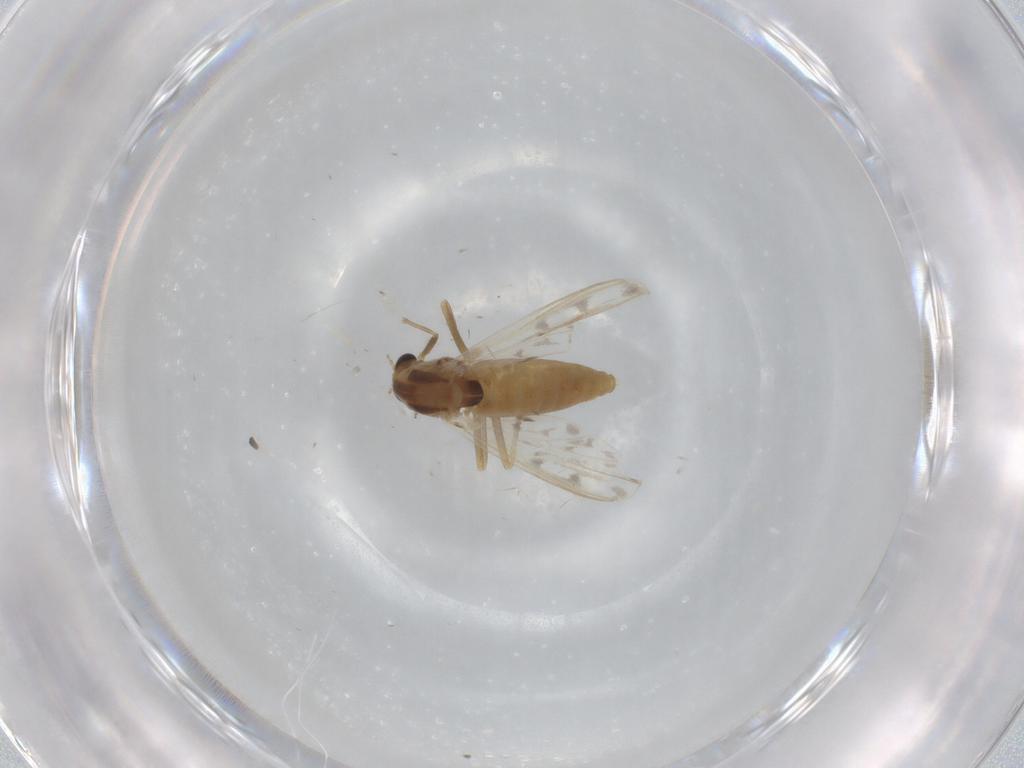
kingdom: Animalia
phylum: Arthropoda
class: Insecta
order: Diptera
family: Chironomidae
